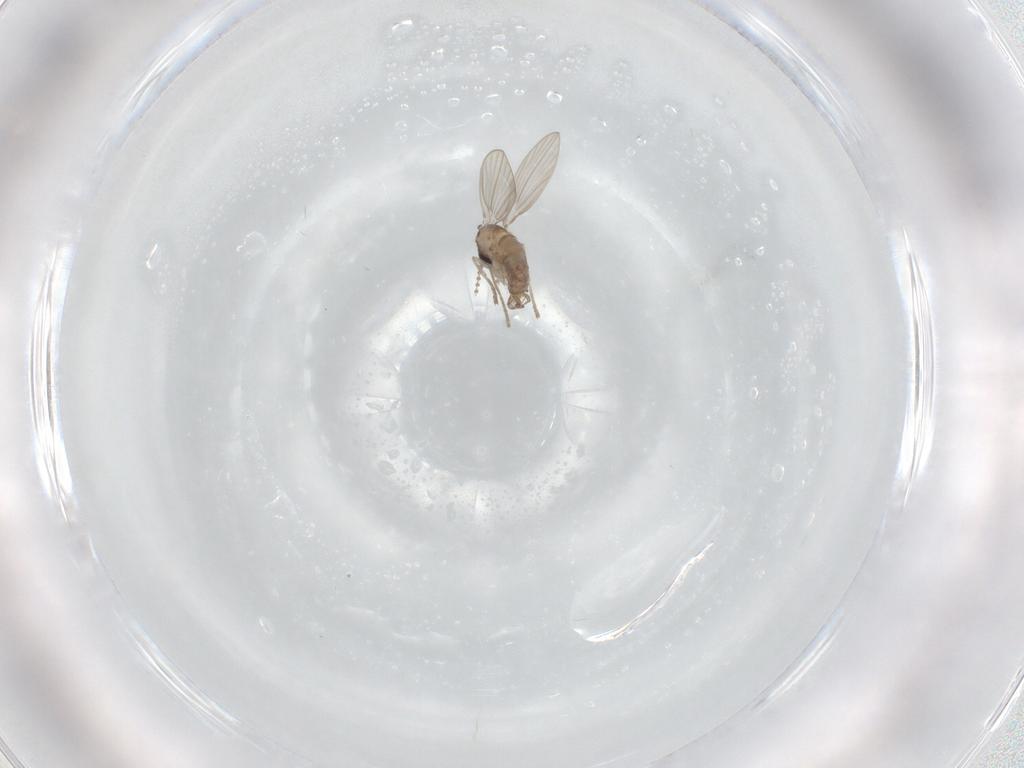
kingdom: Animalia
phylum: Arthropoda
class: Insecta
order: Diptera
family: Psychodidae
